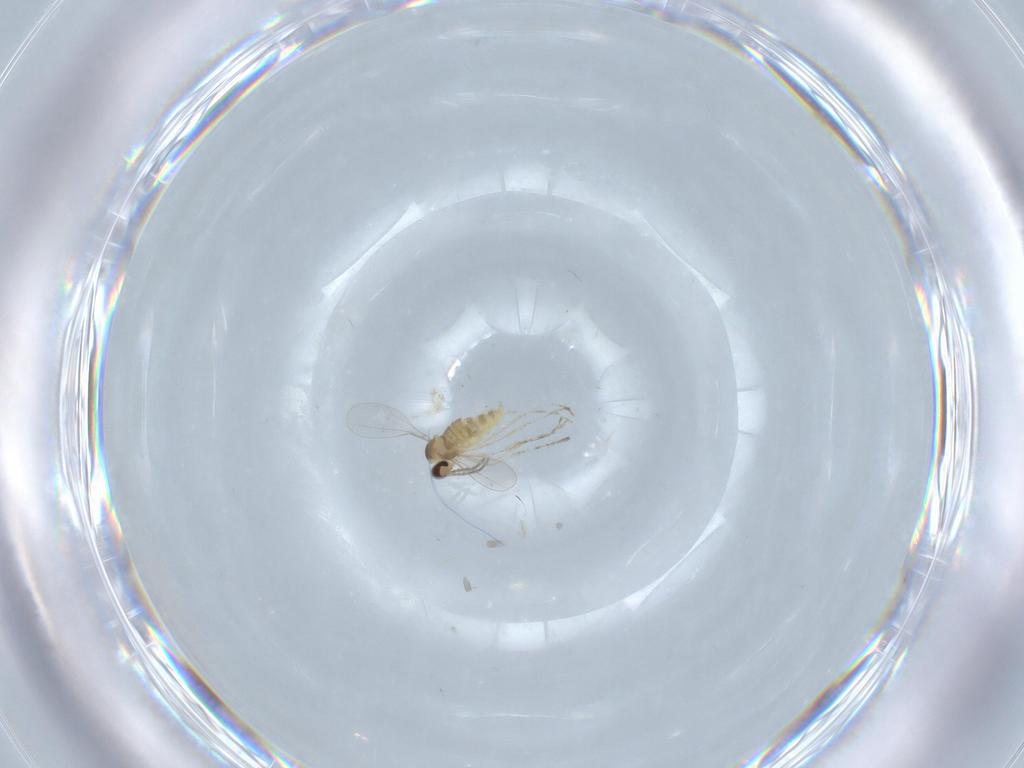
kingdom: Animalia
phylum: Arthropoda
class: Insecta
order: Diptera
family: Cecidomyiidae
